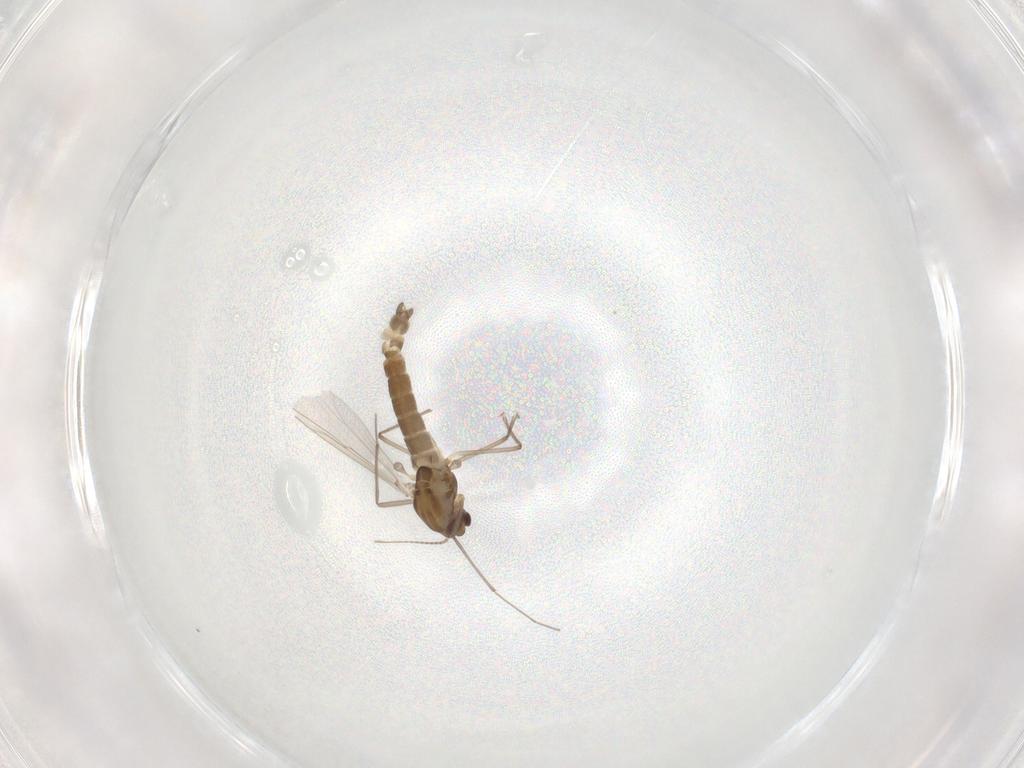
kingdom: Animalia
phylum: Arthropoda
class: Insecta
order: Diptera
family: Chironomidae
